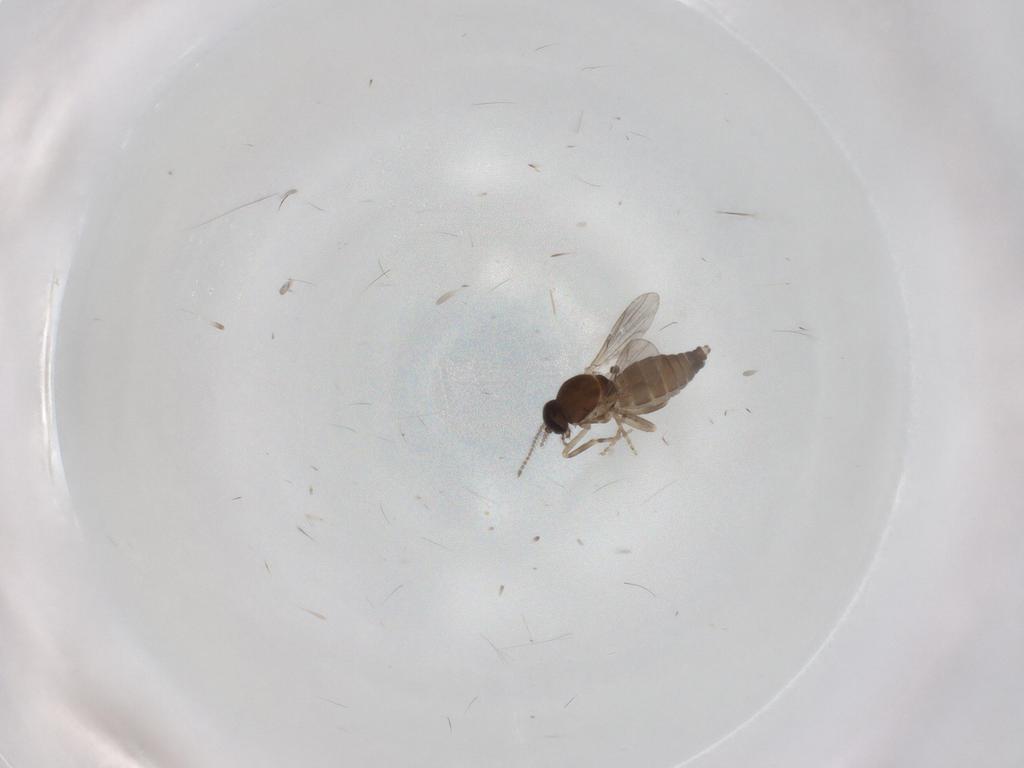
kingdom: Animalia
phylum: Arthropoda
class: Insecta
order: Diptera
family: Ceratopogonidae
